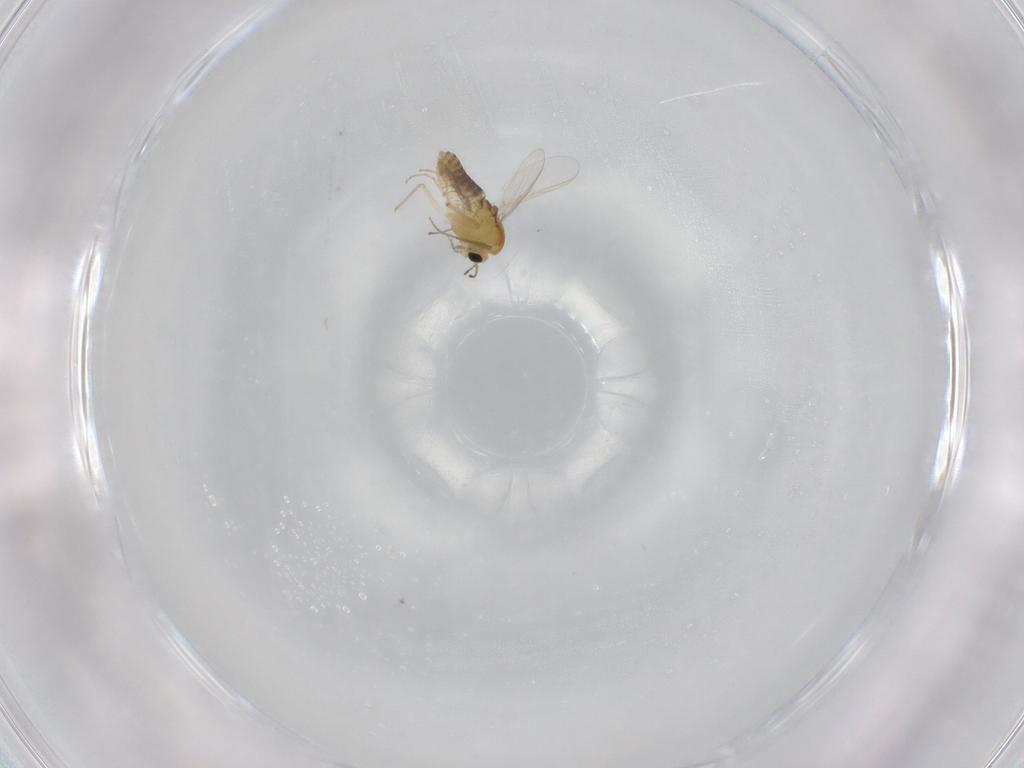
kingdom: Animalia
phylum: Arthropoda
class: Insecta
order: Diptera
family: Chironomidae
